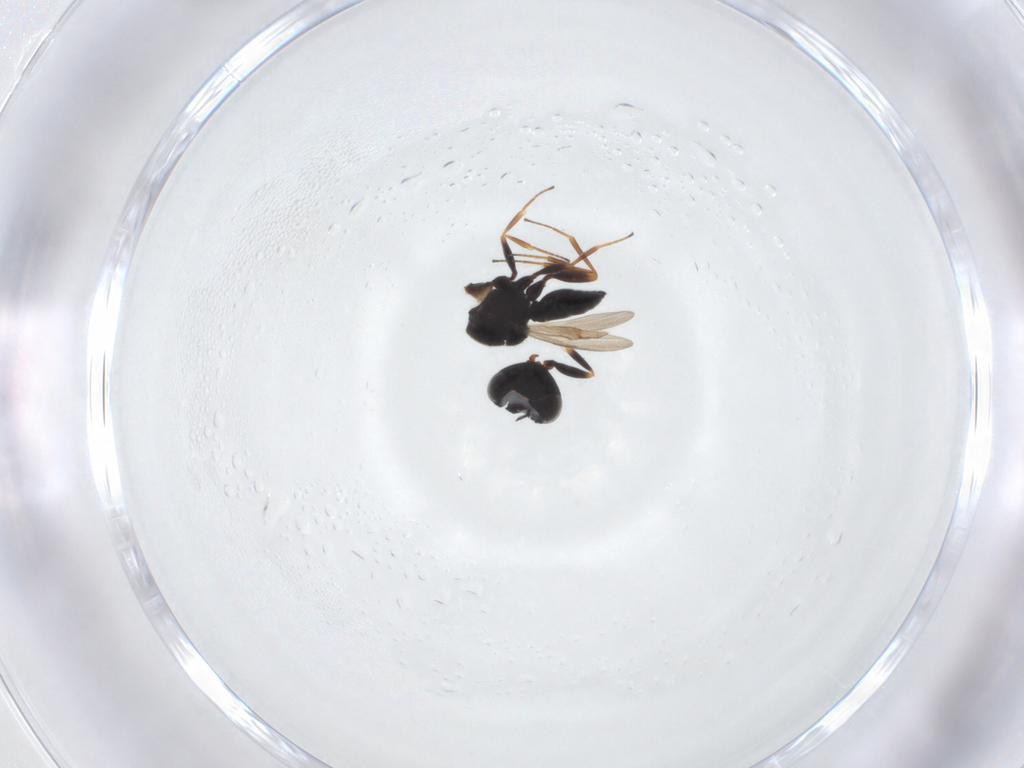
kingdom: Animalia
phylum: Arthropoda
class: Insecta
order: Hymenoptera
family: Scelionidae
